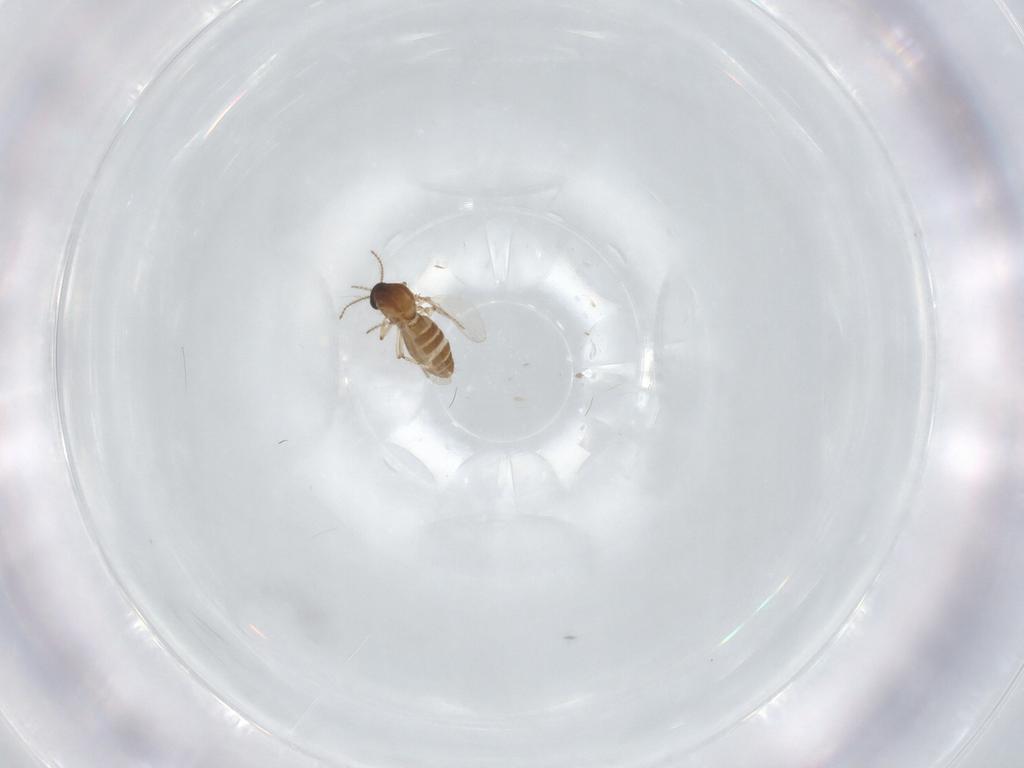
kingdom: Animalia
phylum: Arthropoda
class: Insecta
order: Diptera
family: Ceratopogonidae
